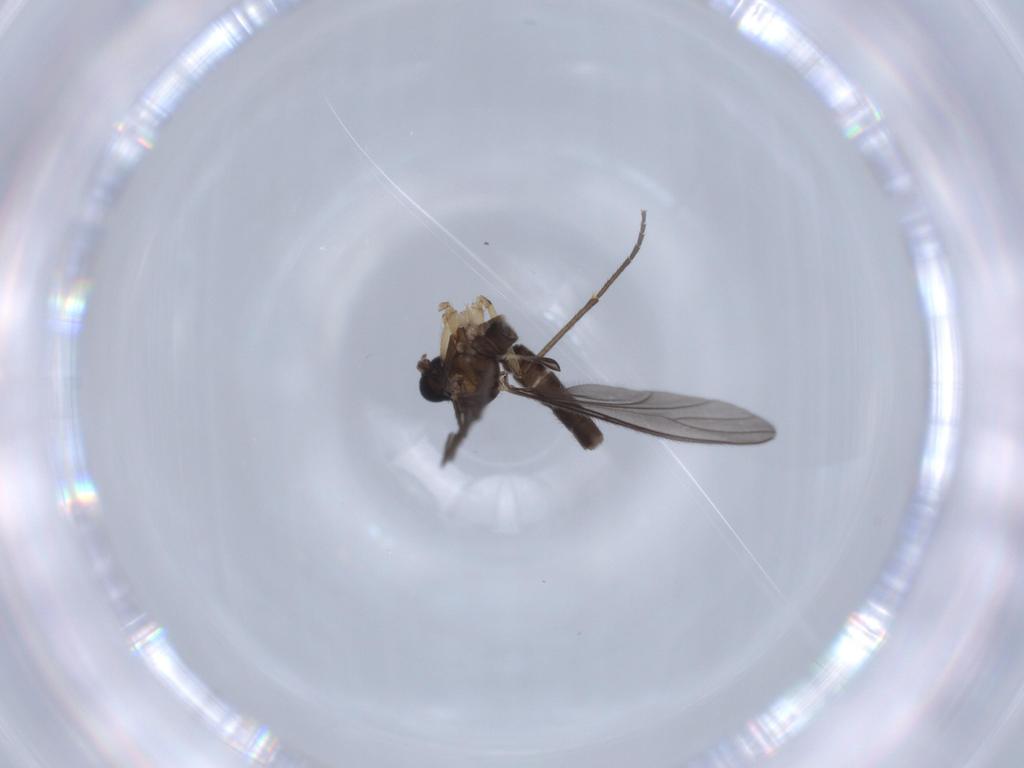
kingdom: Animalia
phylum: Arthropoda
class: Insecta
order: Diptera
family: Sciaridae
